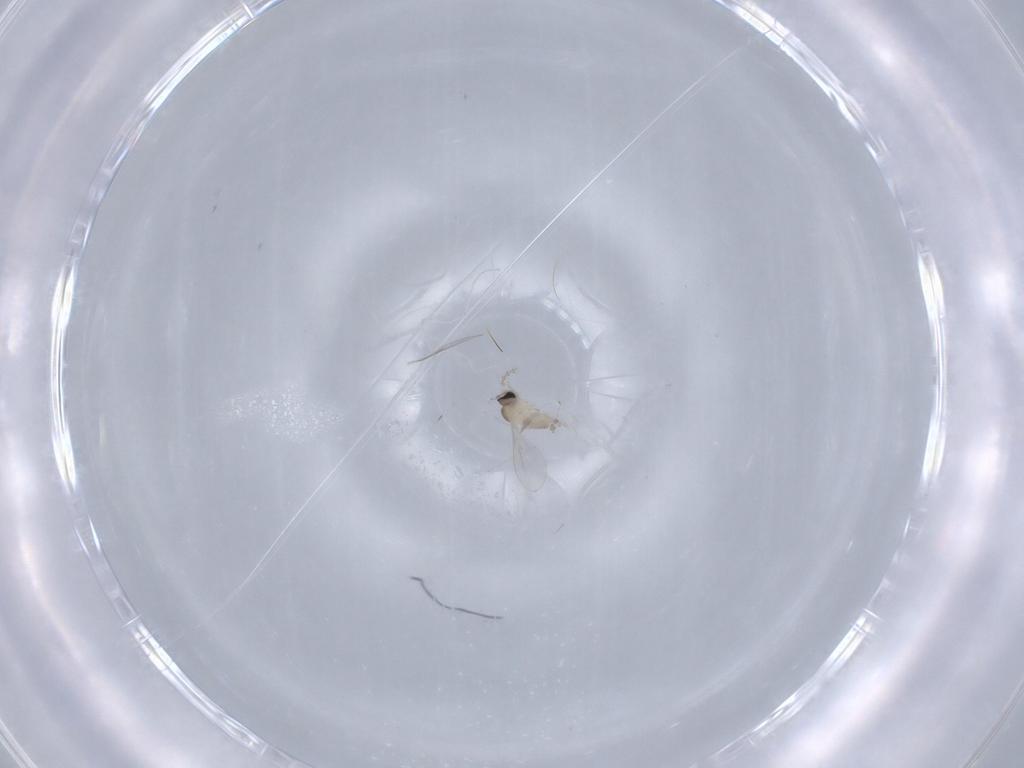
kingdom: Animalia
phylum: Arthropoda
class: Insecta
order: Diptera
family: Cecidomyiidae
